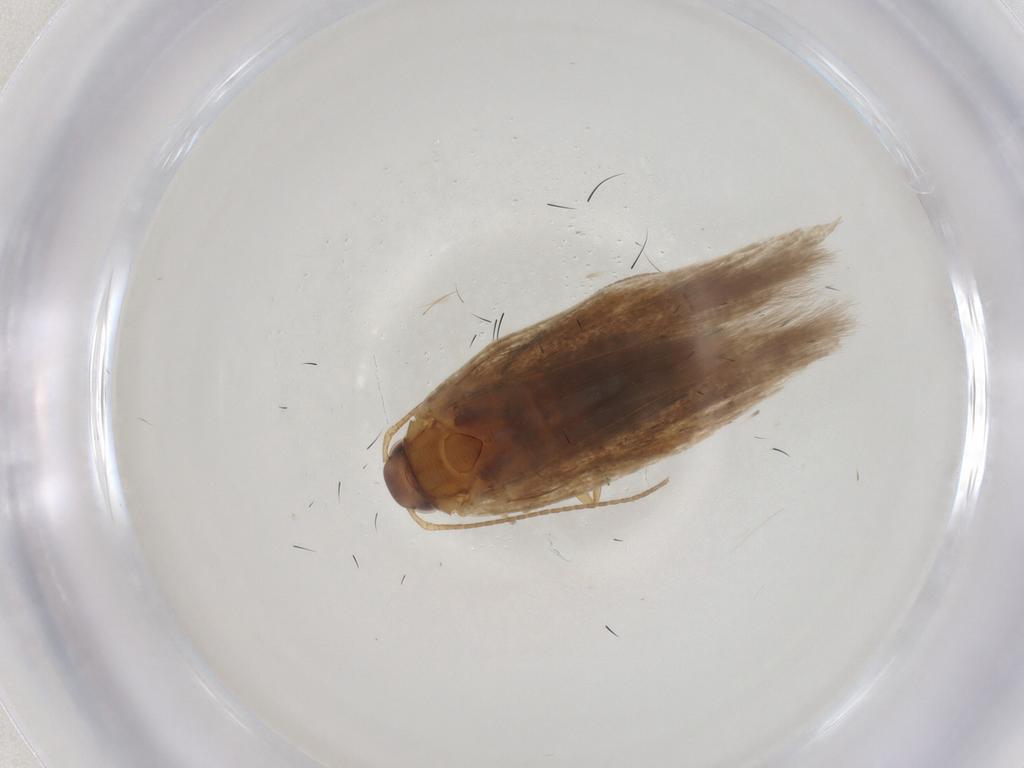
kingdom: Animalia
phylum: Arthropoda
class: Insecta
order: Lepidoptera
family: Gelechiidae
